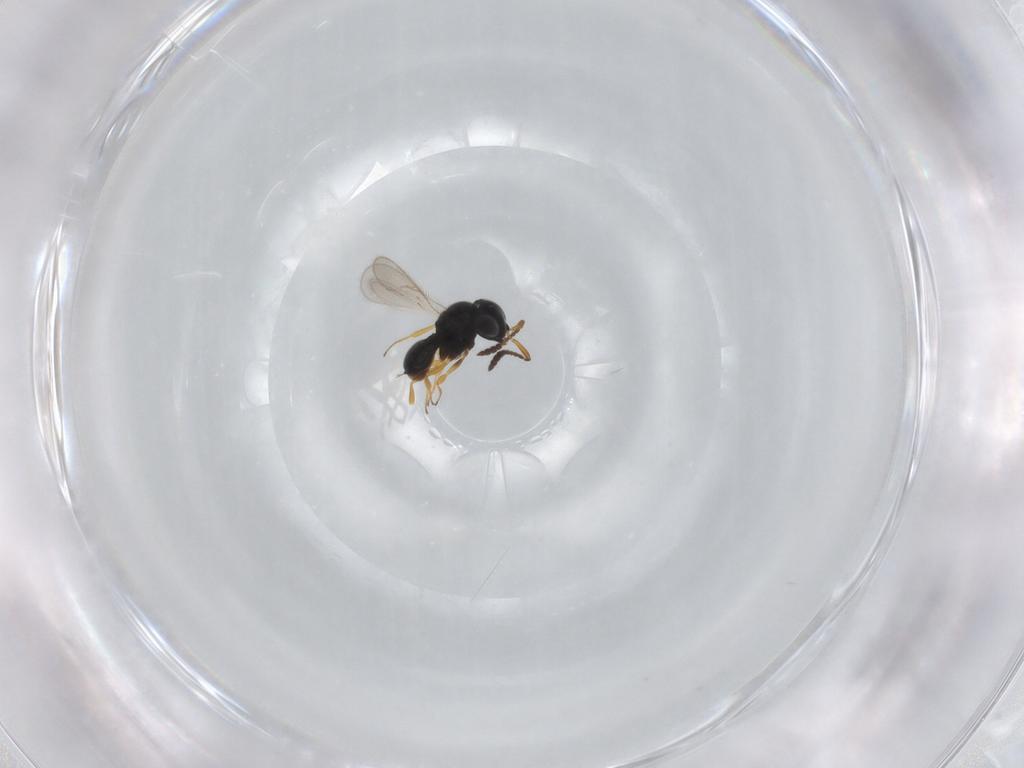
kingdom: Animalia
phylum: Arthropoda
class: Insecta
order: Hymenoptera
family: Scelionidae
